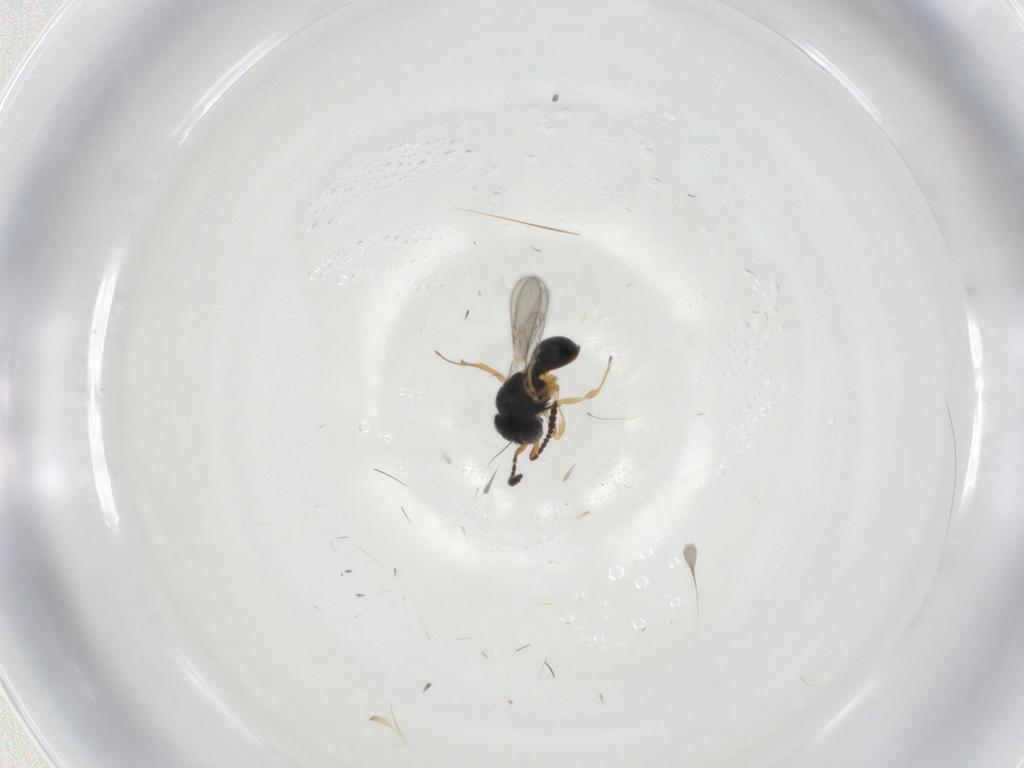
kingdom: Animalia
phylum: Arthropoda
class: Insecta
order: Hymenoptera
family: Scelionidae
